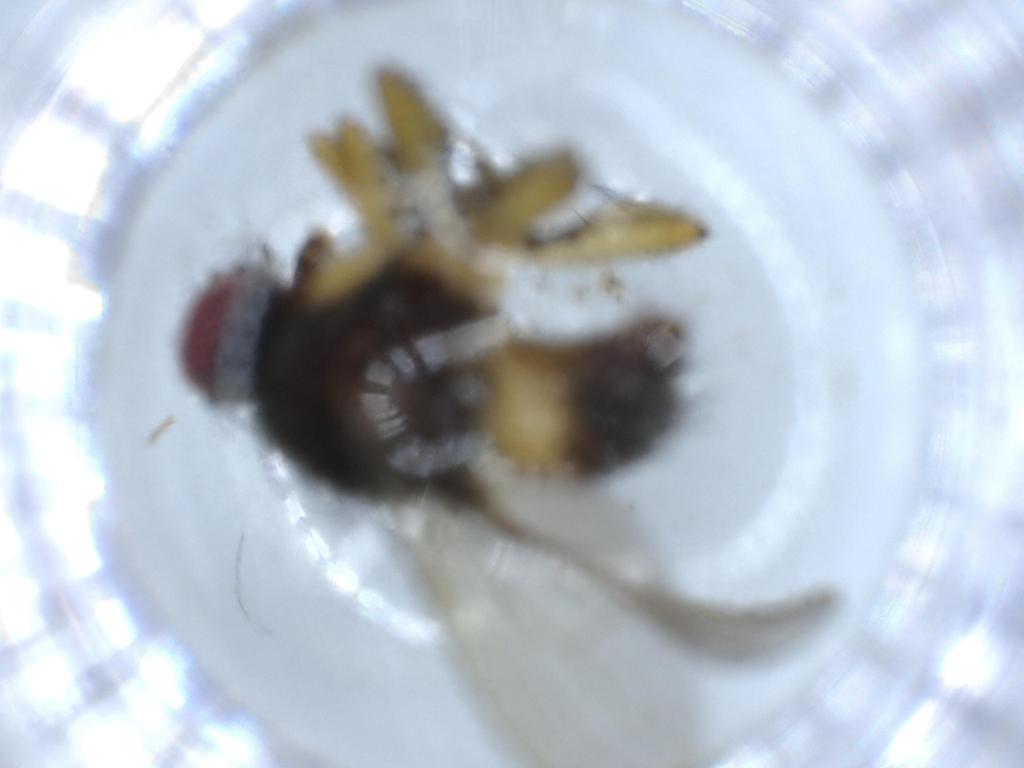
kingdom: Animalia
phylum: Arthropoda
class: Insecta
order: Diptera
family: Muscidae
